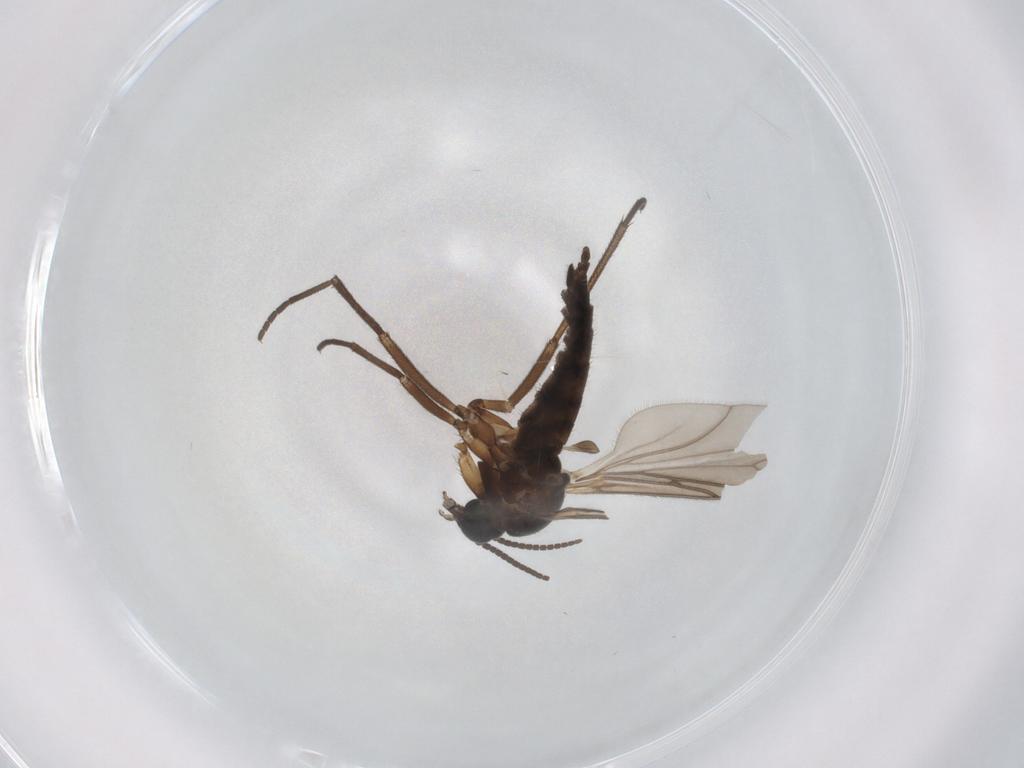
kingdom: Animalia
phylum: Arthropoda
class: Insecta
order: Diptera
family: Sciaridae
